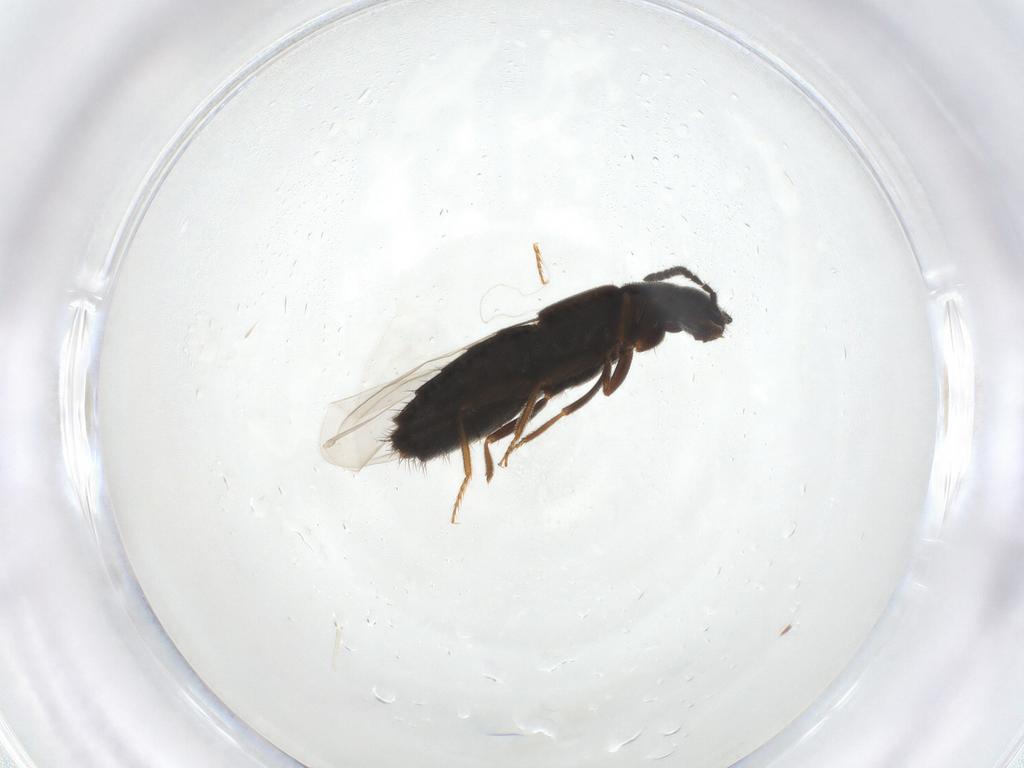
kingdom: Animalia
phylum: Arthropoda
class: Insecta
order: Coleoptera
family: Staphylinidae
